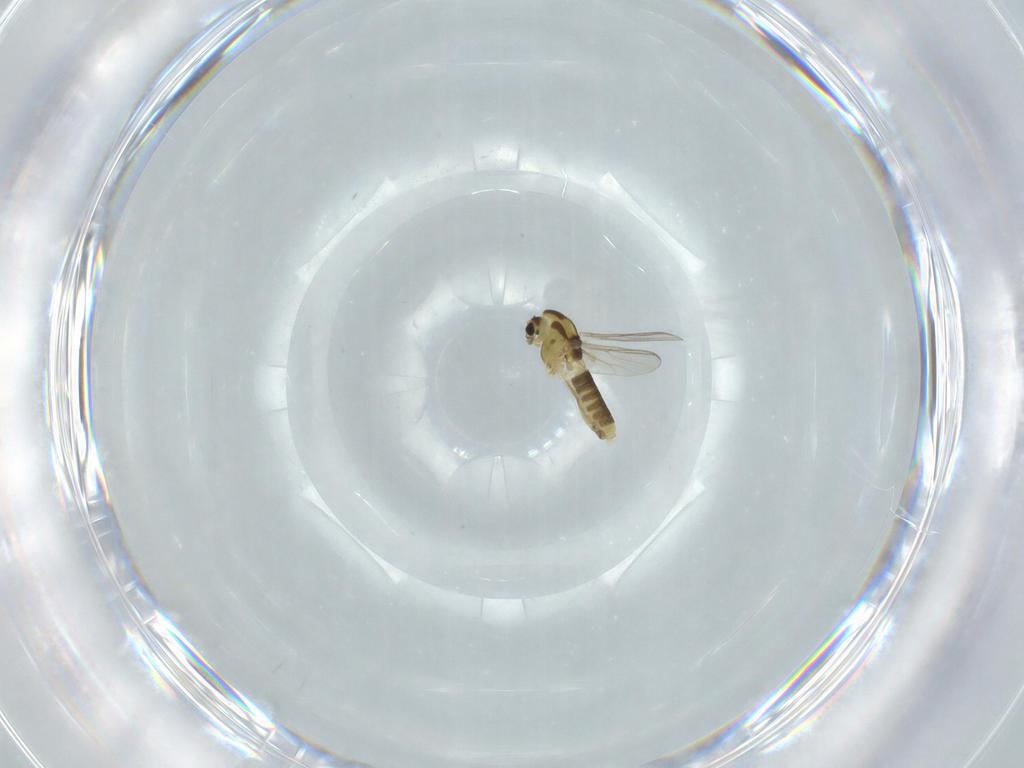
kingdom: Animalia
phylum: Arthropoda
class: Insecta
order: Diptera
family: Chironomidae
